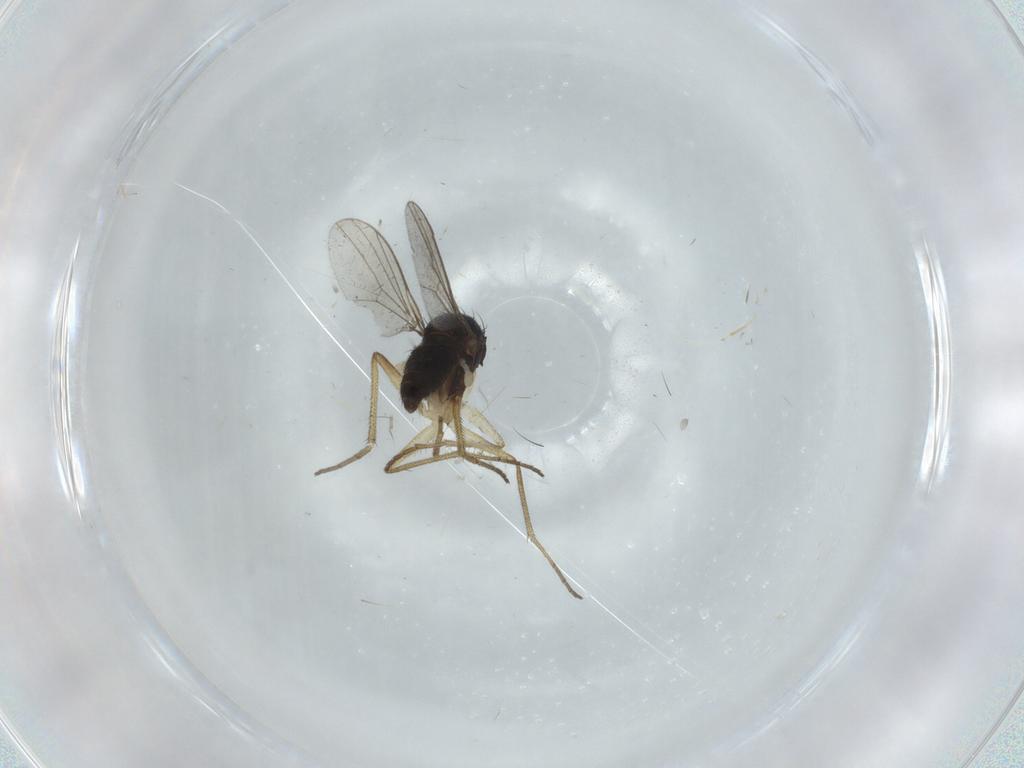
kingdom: Animalia
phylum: Arthropoda
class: Insecta
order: Diptera
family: Dolichopodidae
